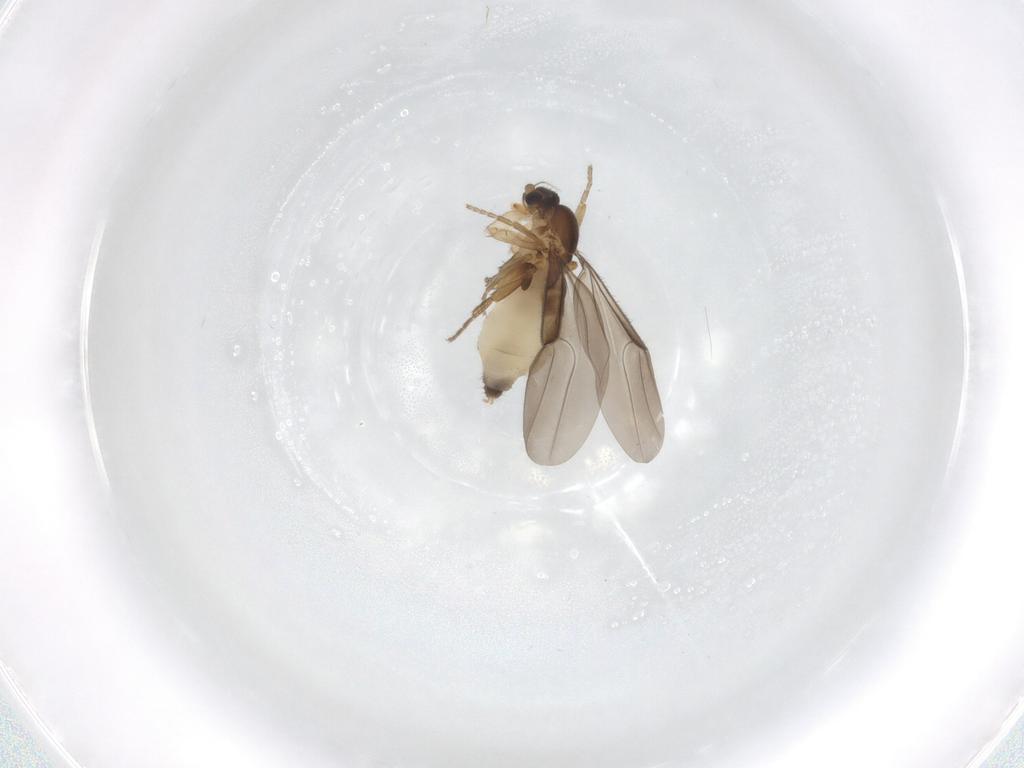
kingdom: Animalia
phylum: Arthropoda
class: Insecta
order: Diptera
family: Phoridae
